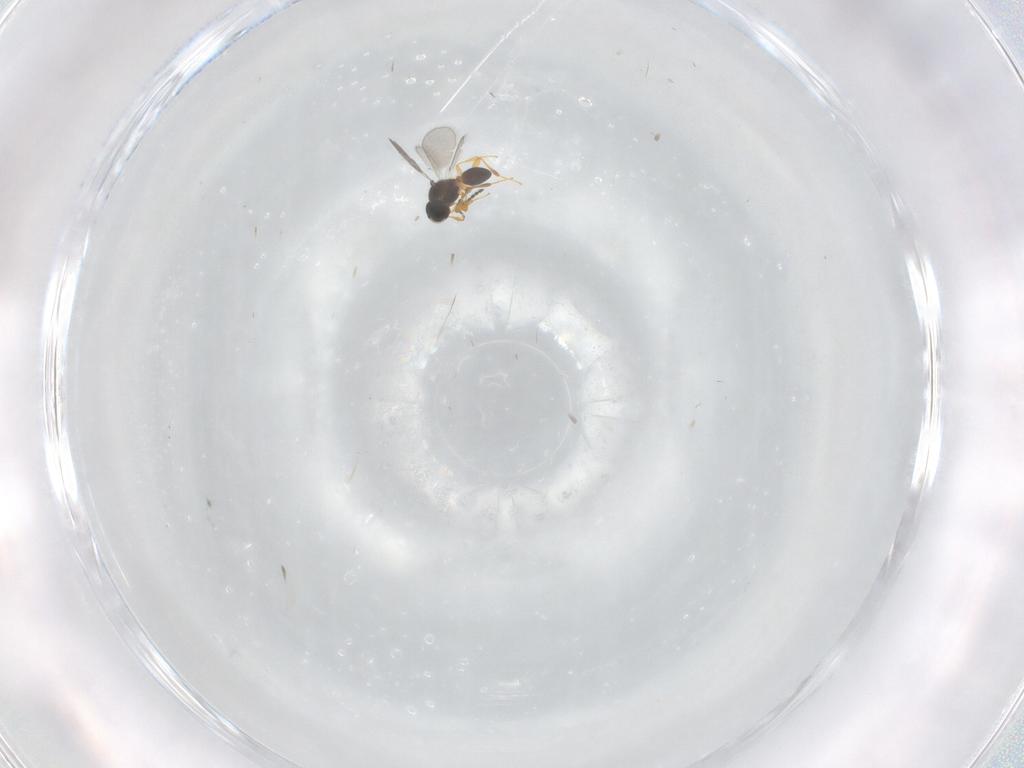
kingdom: Animalia
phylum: Arthropoda
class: Insecta
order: Hymenoptera
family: Platygastridae
